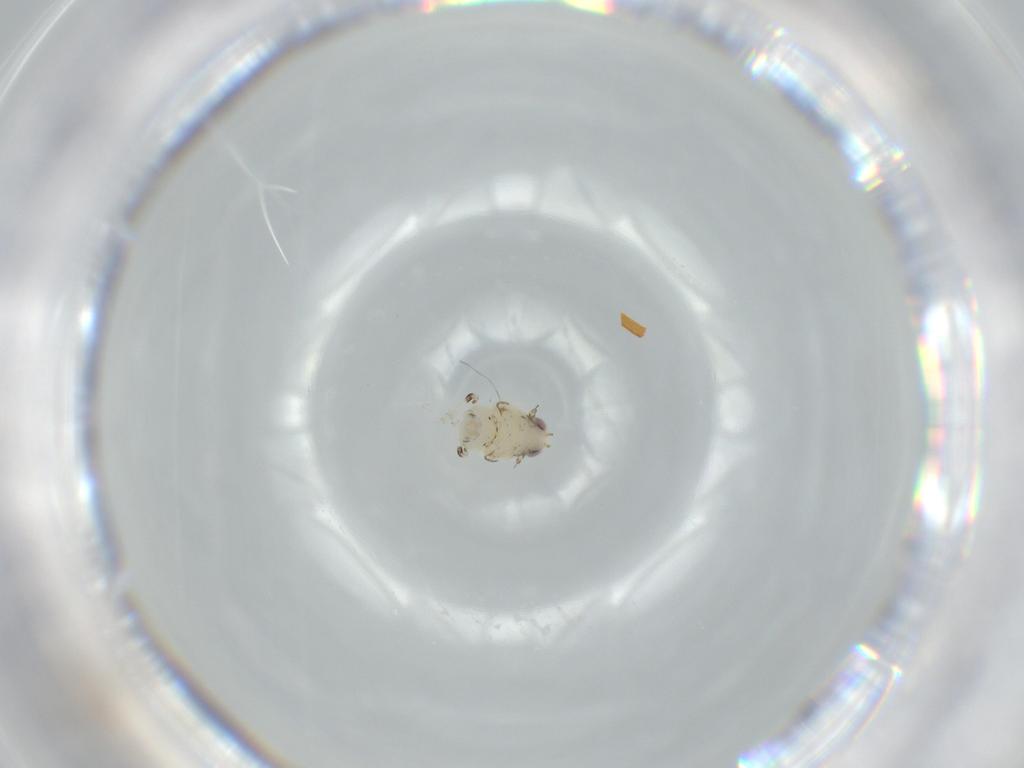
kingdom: Animalia
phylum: Arthropoda
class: Insecta
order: Hemiptera
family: Nogodinidae
